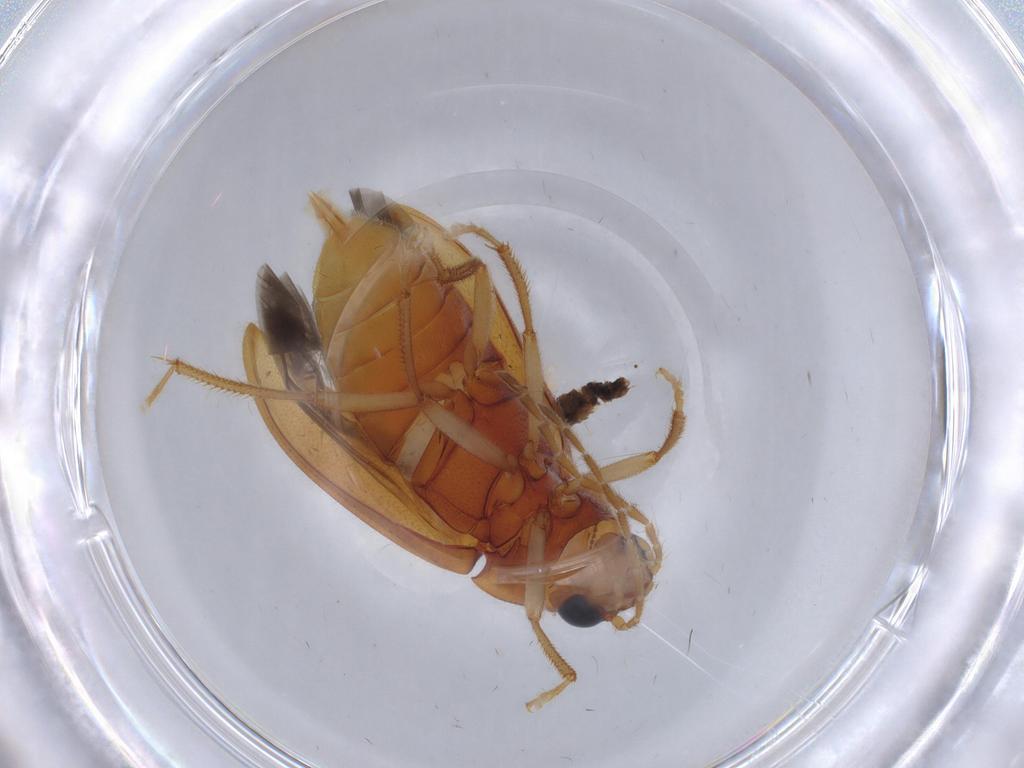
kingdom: Animalia
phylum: Arthropoda
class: Insecta
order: Coleoptera
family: Ptilodactylidae
